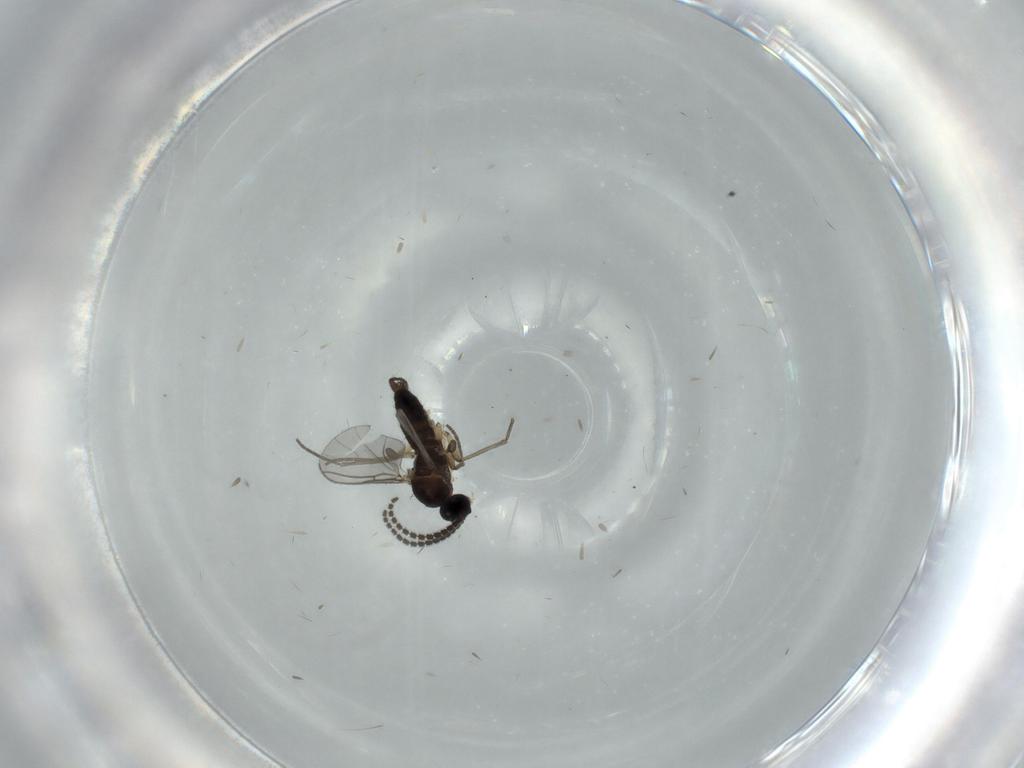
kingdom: Animalia
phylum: Arthropoda
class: Insecta
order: Diptera
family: Sciaridae
